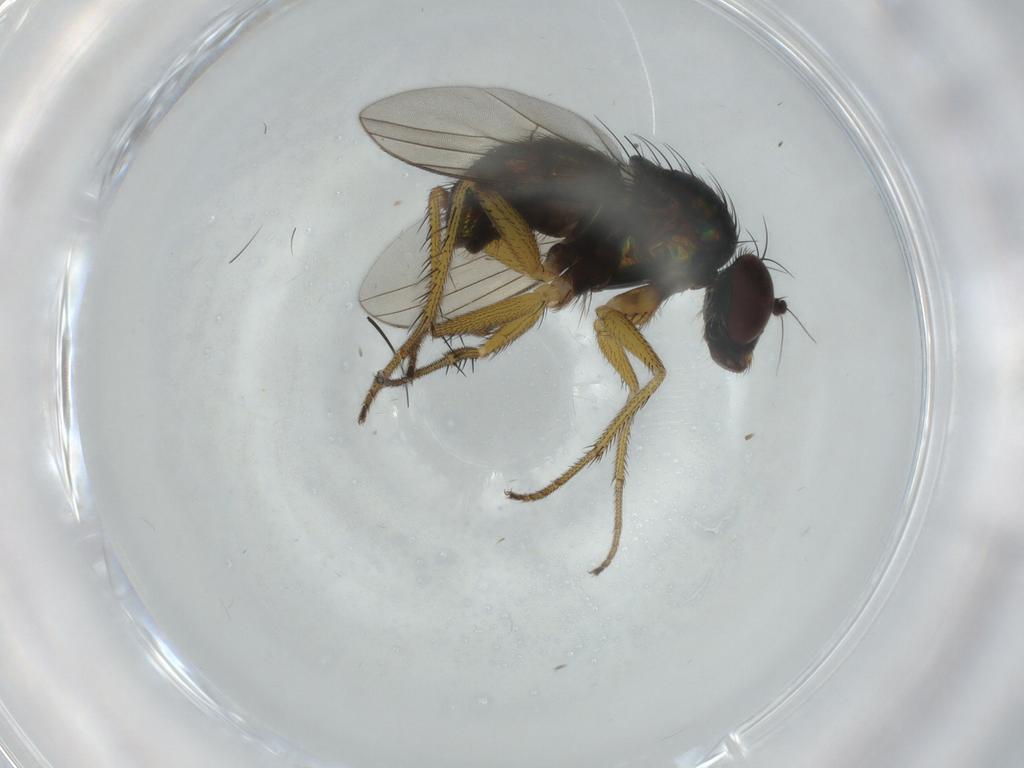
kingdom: Animalia
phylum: Arthropoda
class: Insecta
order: Diptera
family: Dolichopodidae
